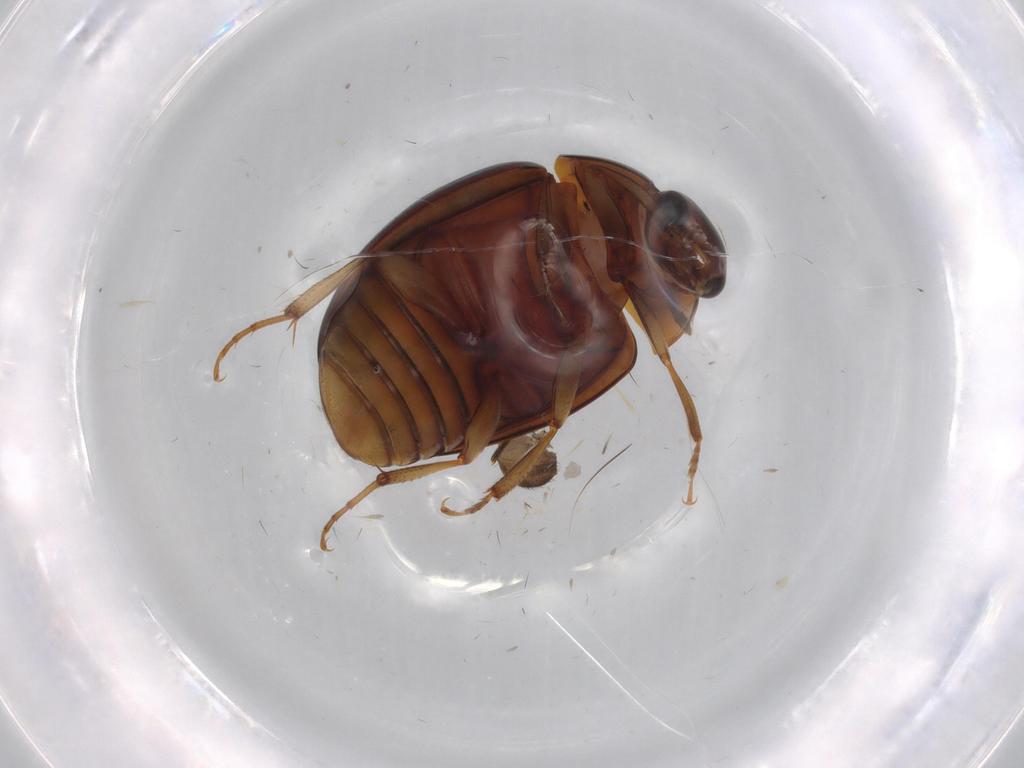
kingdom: Animalia
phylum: Arthropoda
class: Insecta
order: Coleoptera
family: Nitidulidae
